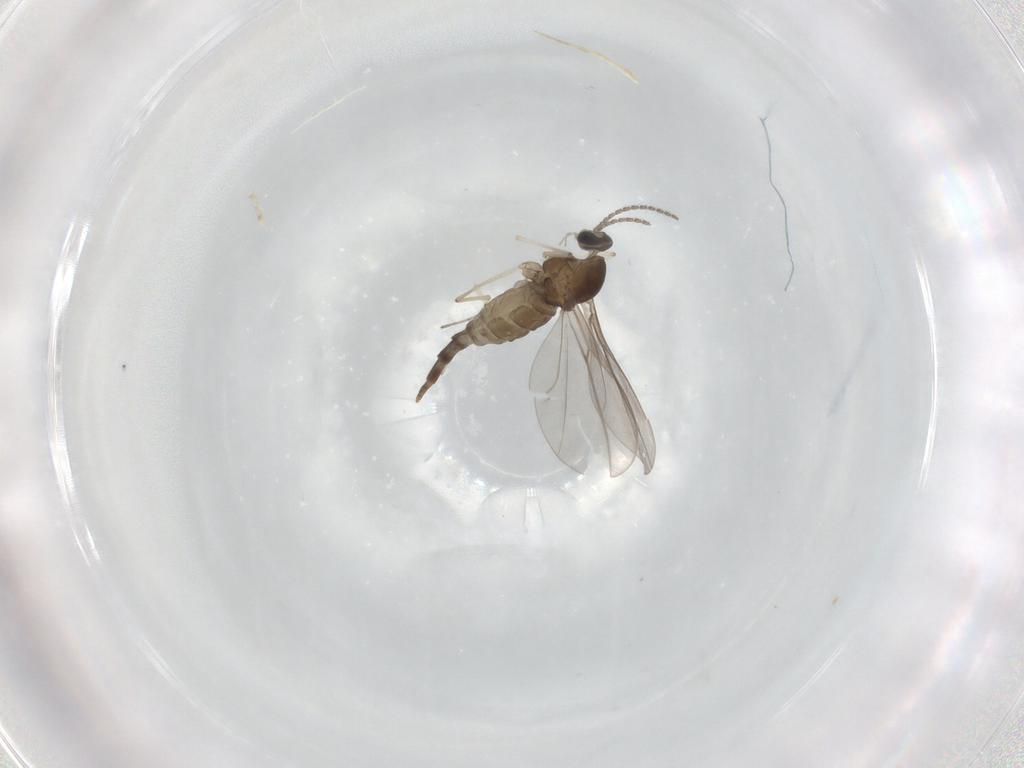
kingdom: Animalia
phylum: Arthropoda
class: Insecta
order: Diptera
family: Cecidomyiidae
